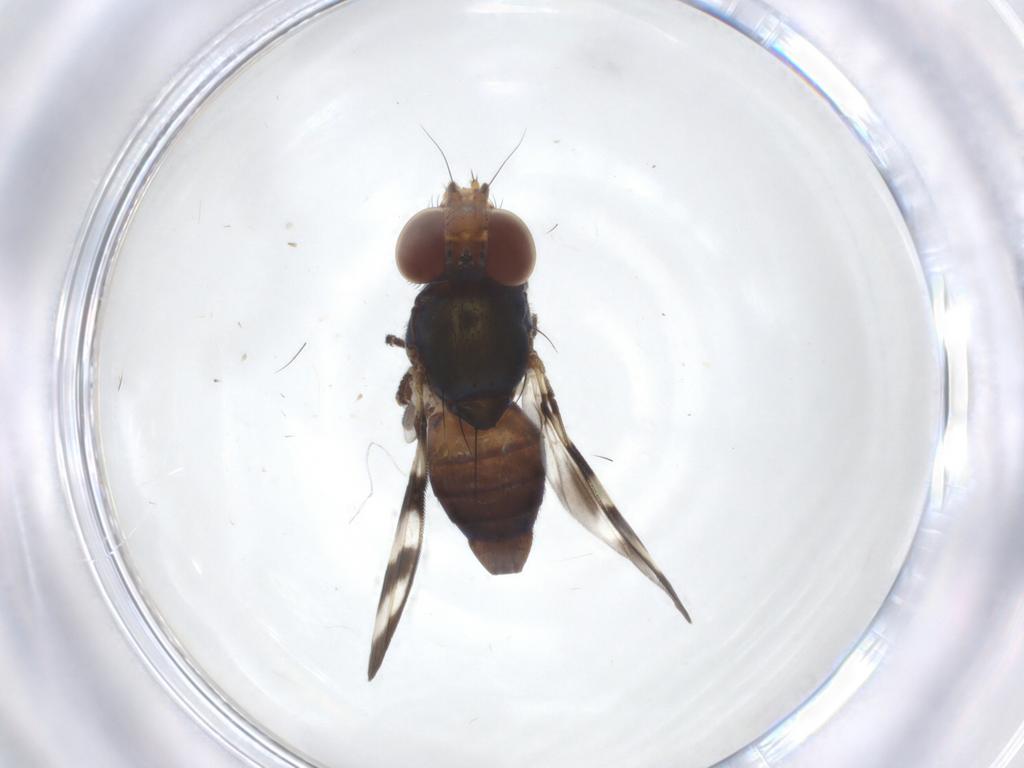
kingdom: Animalia
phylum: Arthropoda
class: Insecta
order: Diptera
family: Ulidiidae
